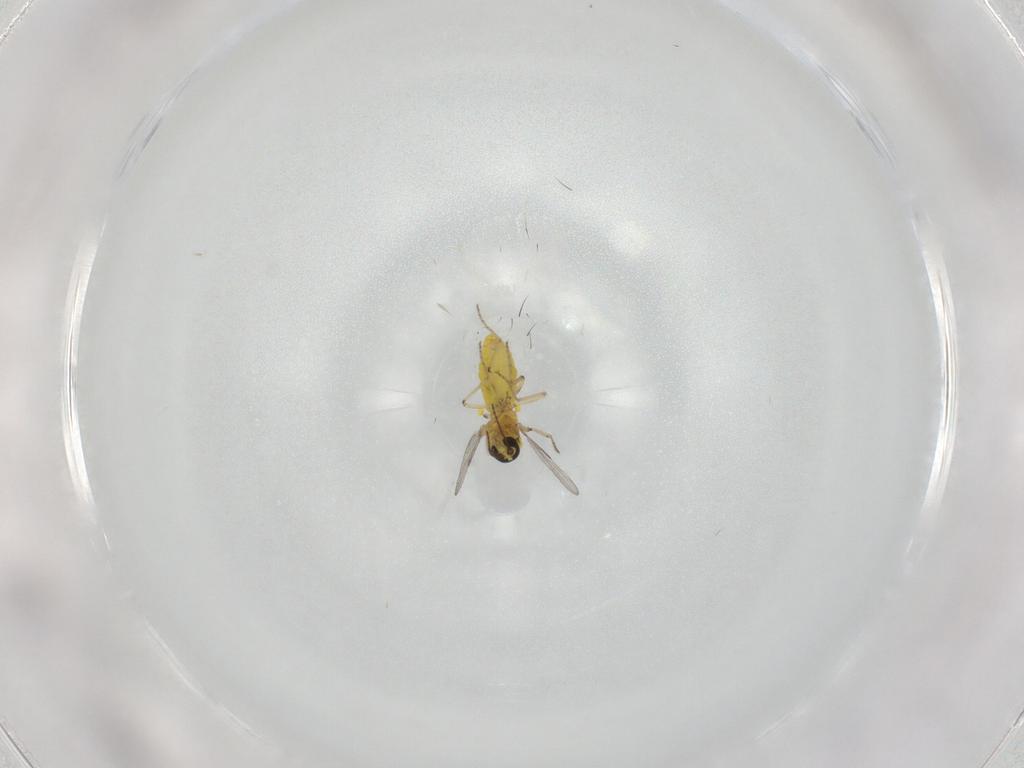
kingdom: Animalia
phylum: Arthropoda
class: Insecta
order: Diptera
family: Ceratopogonidae
